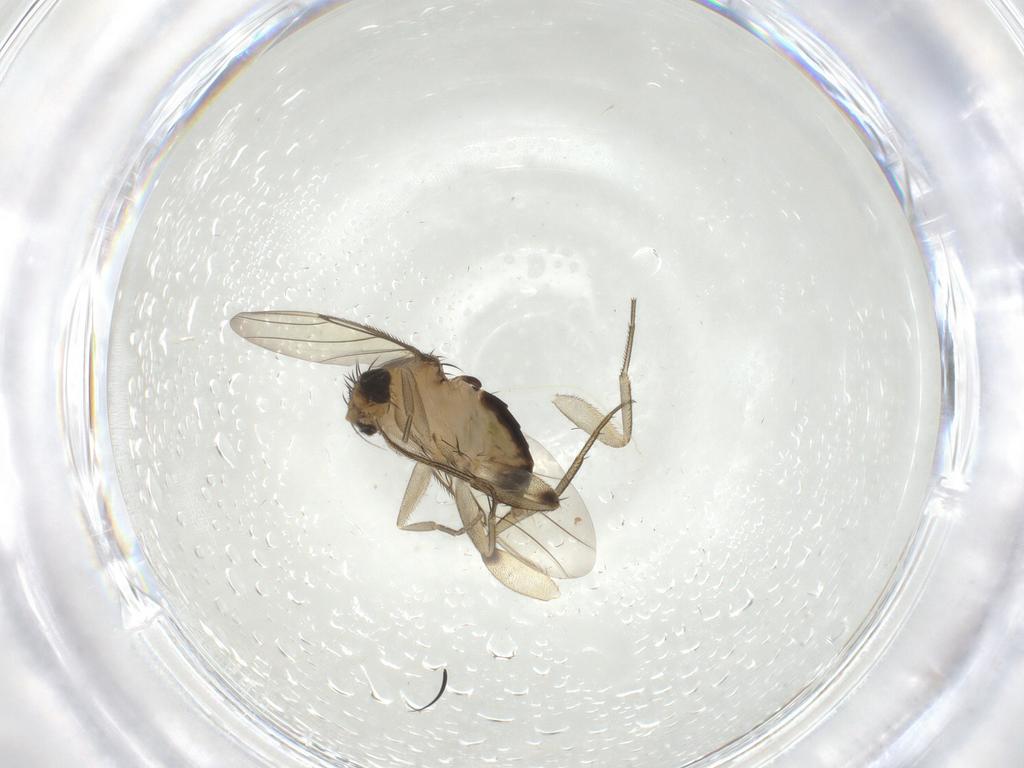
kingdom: Animalia
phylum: Arthropoda
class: Insecta
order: Diptera
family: Phoridae
